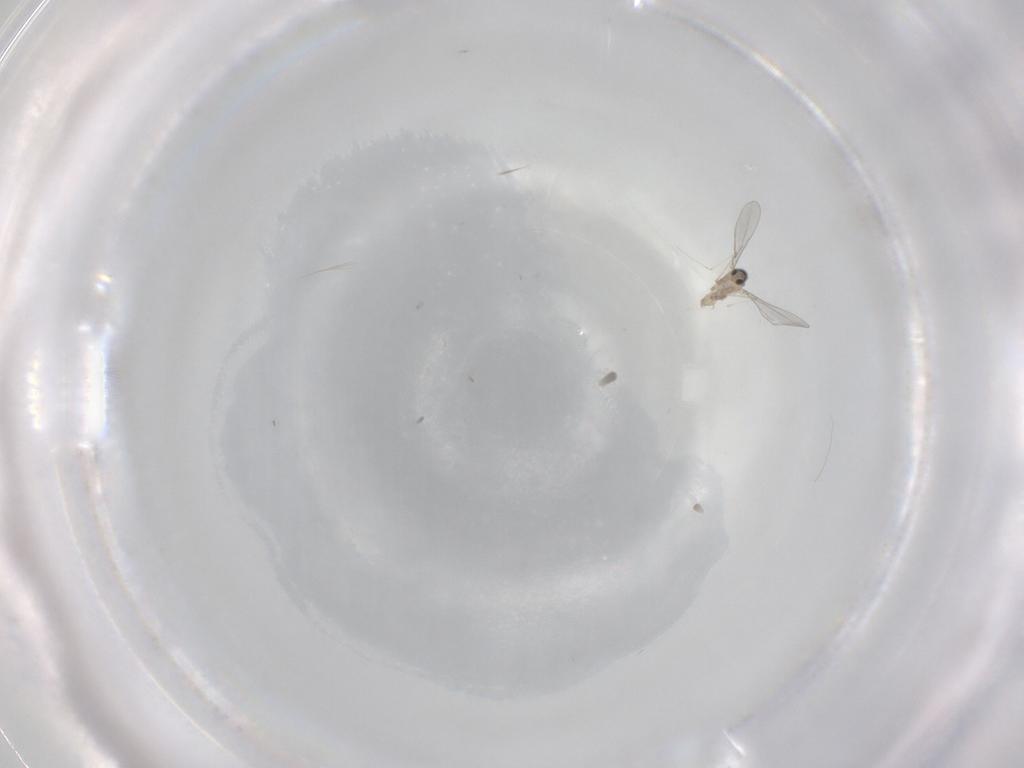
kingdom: Animalia
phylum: Arthropoda
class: Insecta
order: Diptera
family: Cecidomyiidae
